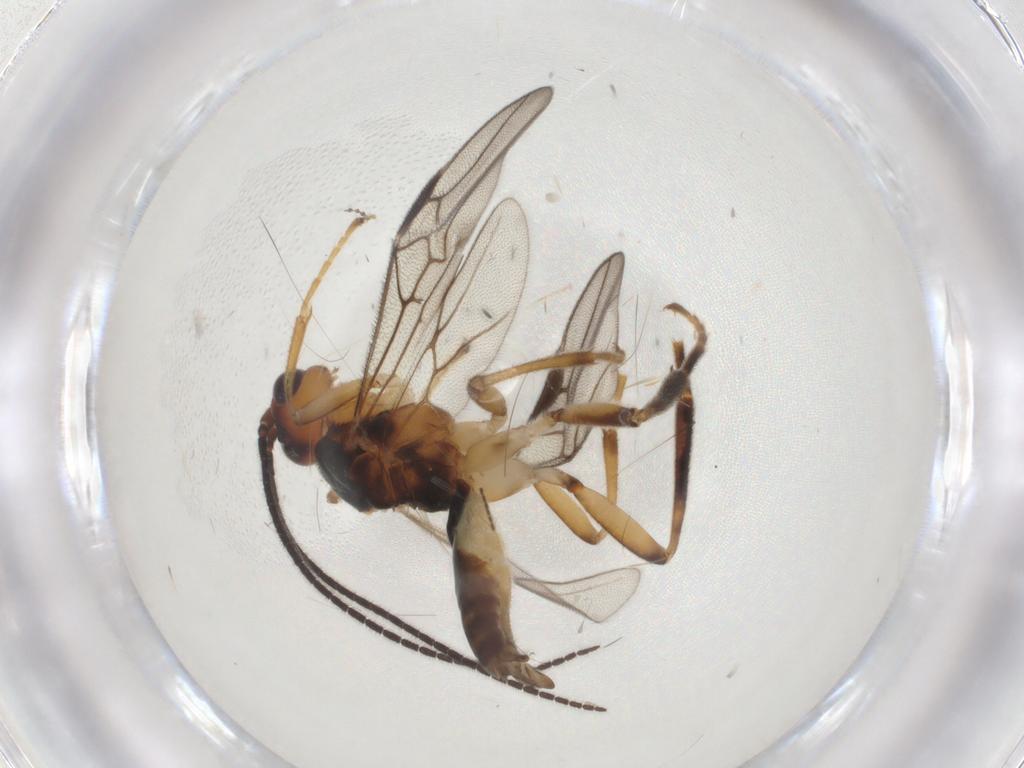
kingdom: Animalia
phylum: Arthropoda
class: Insecta
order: Hymenoptera
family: Braconidae
